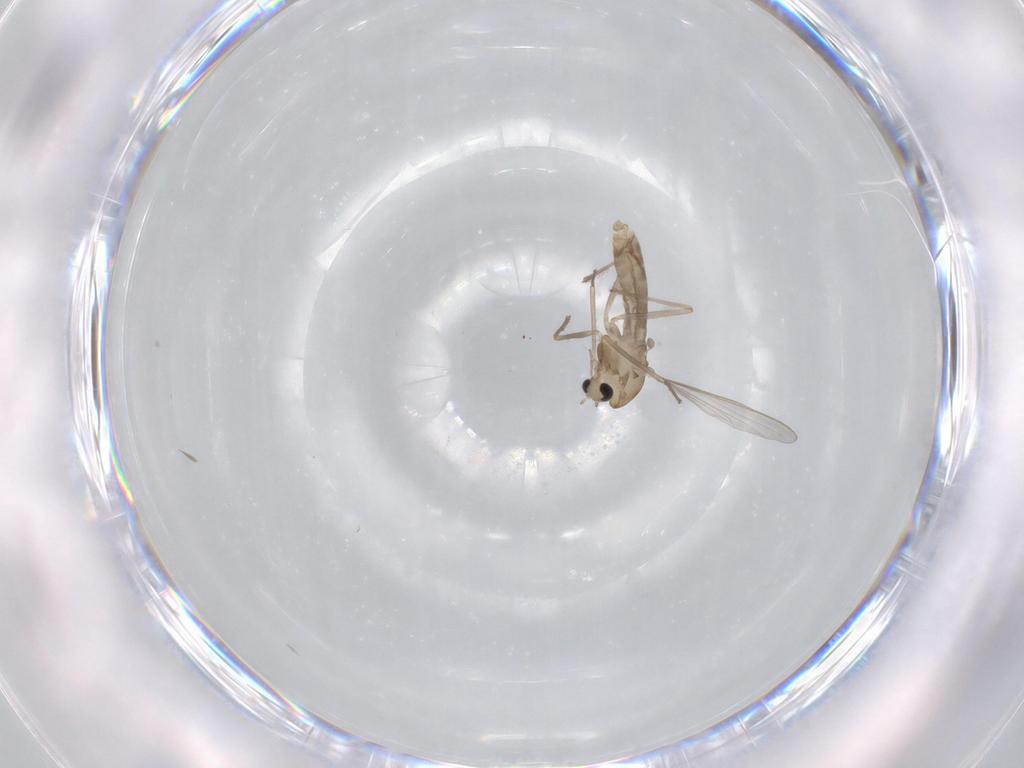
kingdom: Animalia
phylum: Arthropoda
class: Insecta
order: Diptera
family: Chironomidae
